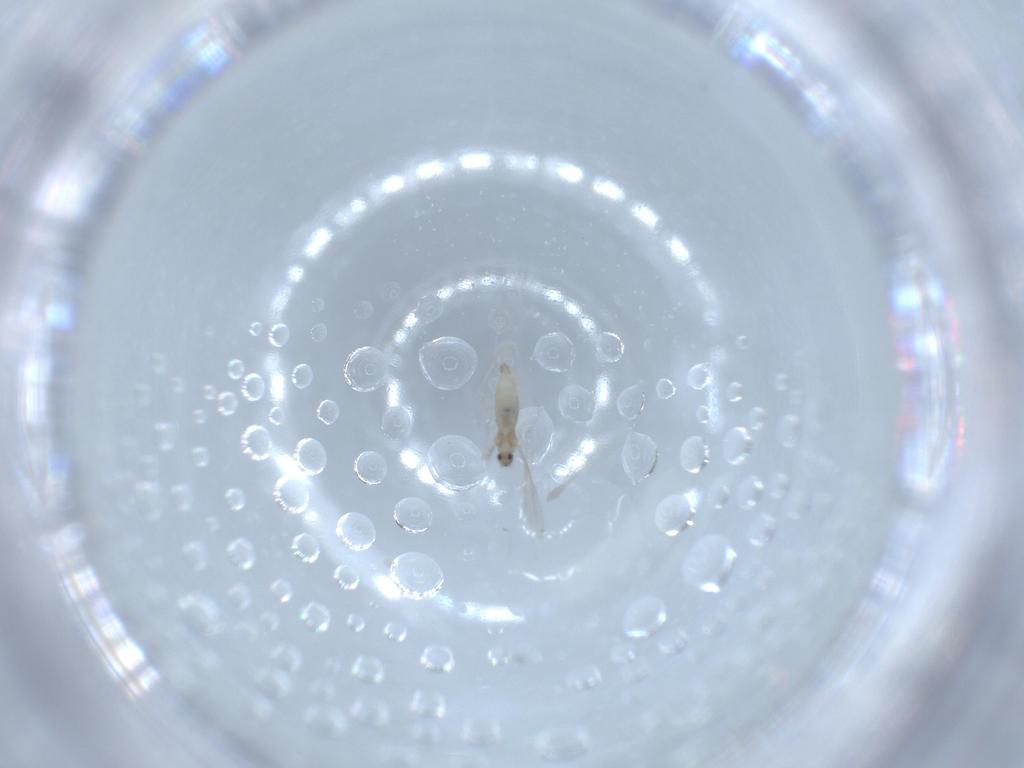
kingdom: Animalia
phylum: Arthropoda
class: Insecta
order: Diptera
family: Cecidomyiidae
